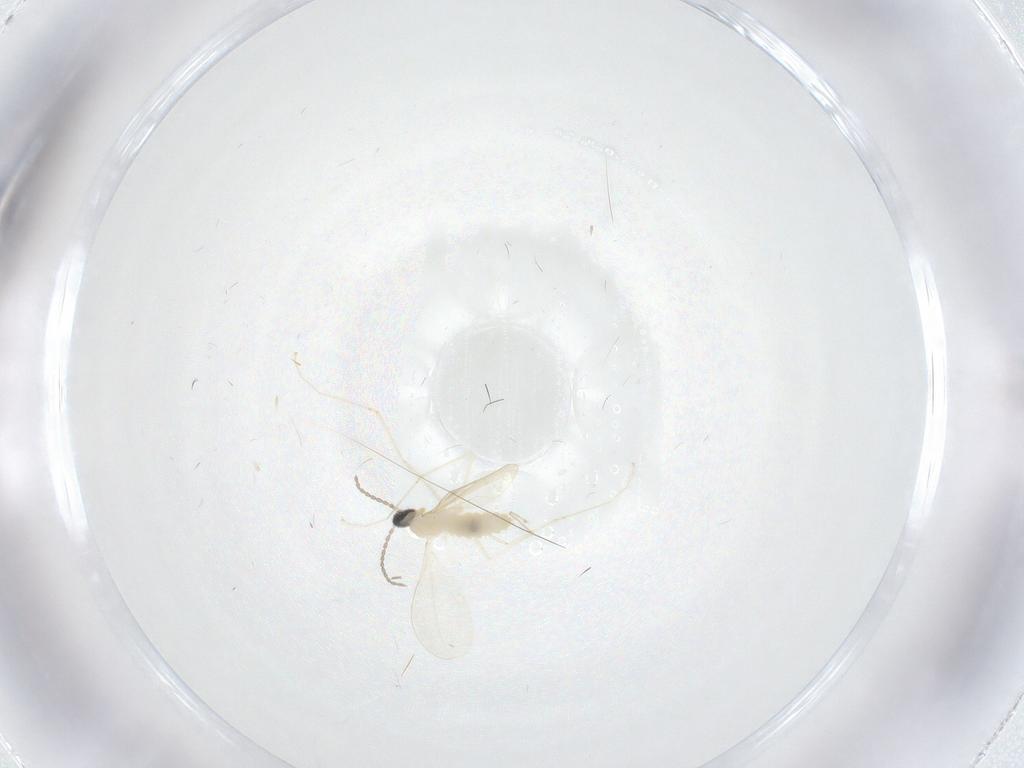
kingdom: Animalia
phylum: Arthropoda
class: Insecta
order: Diptera
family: Cecidomyiidae
